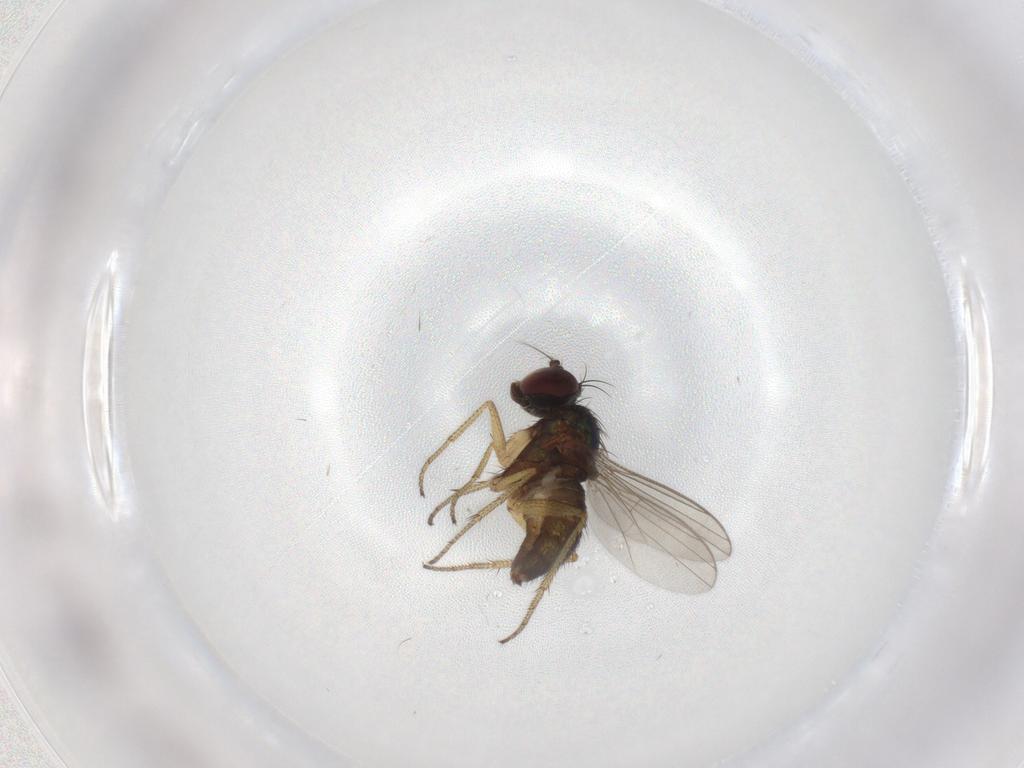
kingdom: Animalia
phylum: Arthropoda
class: Insecta
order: Diptera
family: Dolichopodidae
